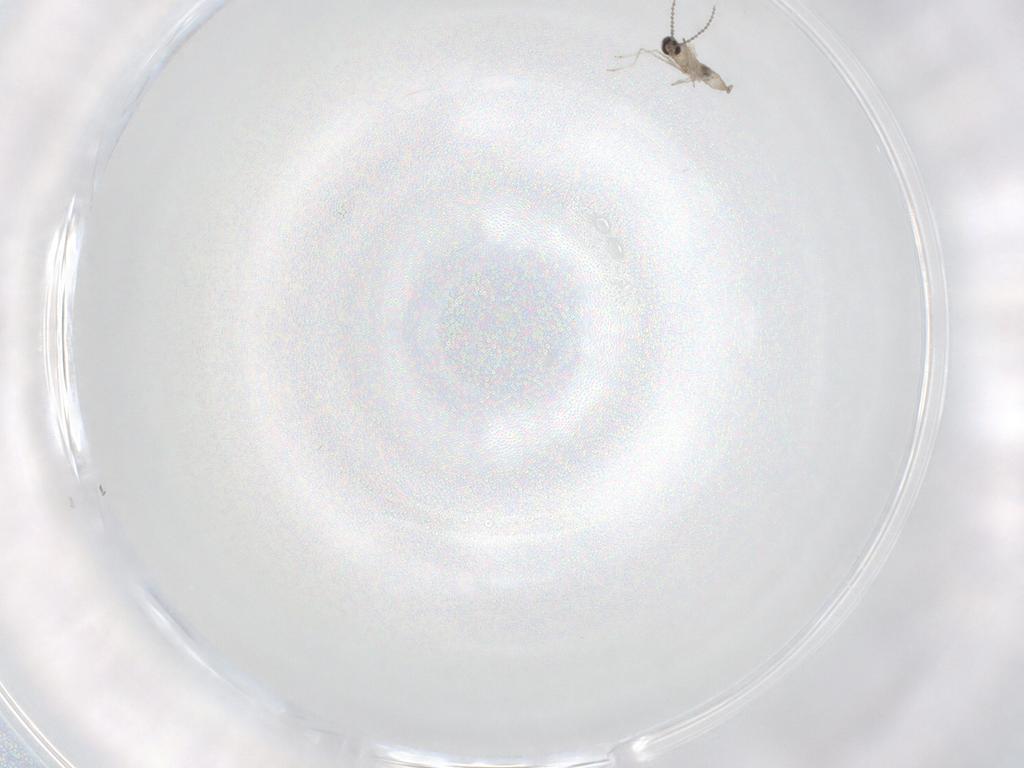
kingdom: Animalia
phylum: Arthropoda
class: Insecta
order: Diptera
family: Cecidomyiidae
